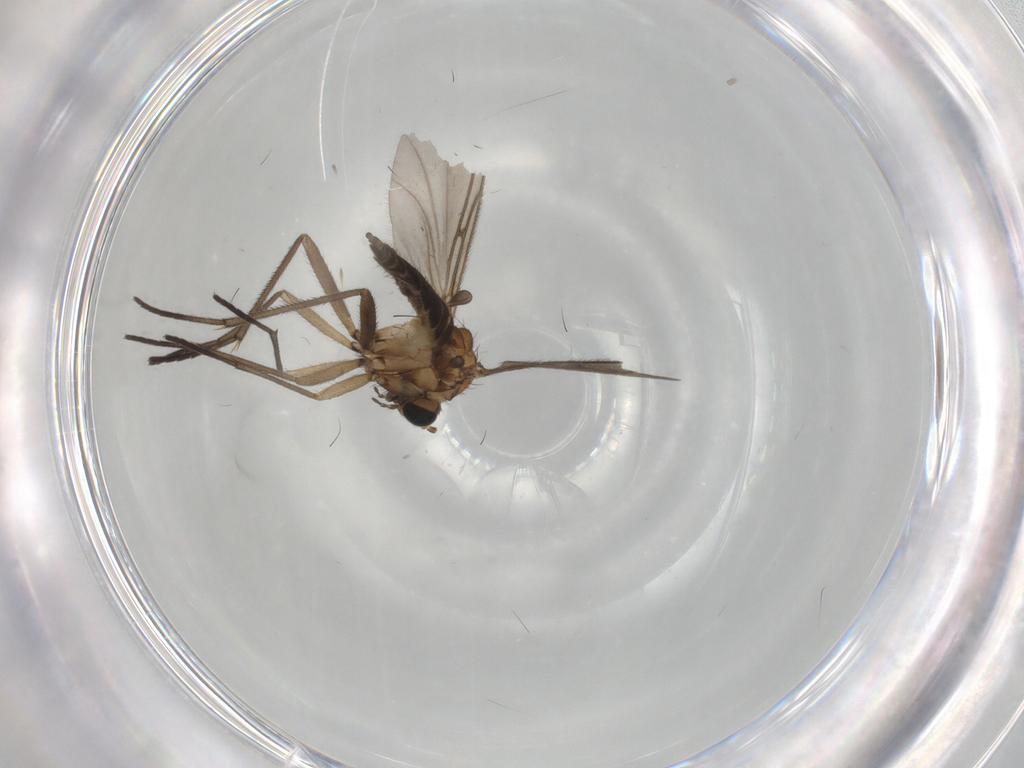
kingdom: Animalia
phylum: Arthropoda
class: Insecta
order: Diptera
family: Sciaridae
